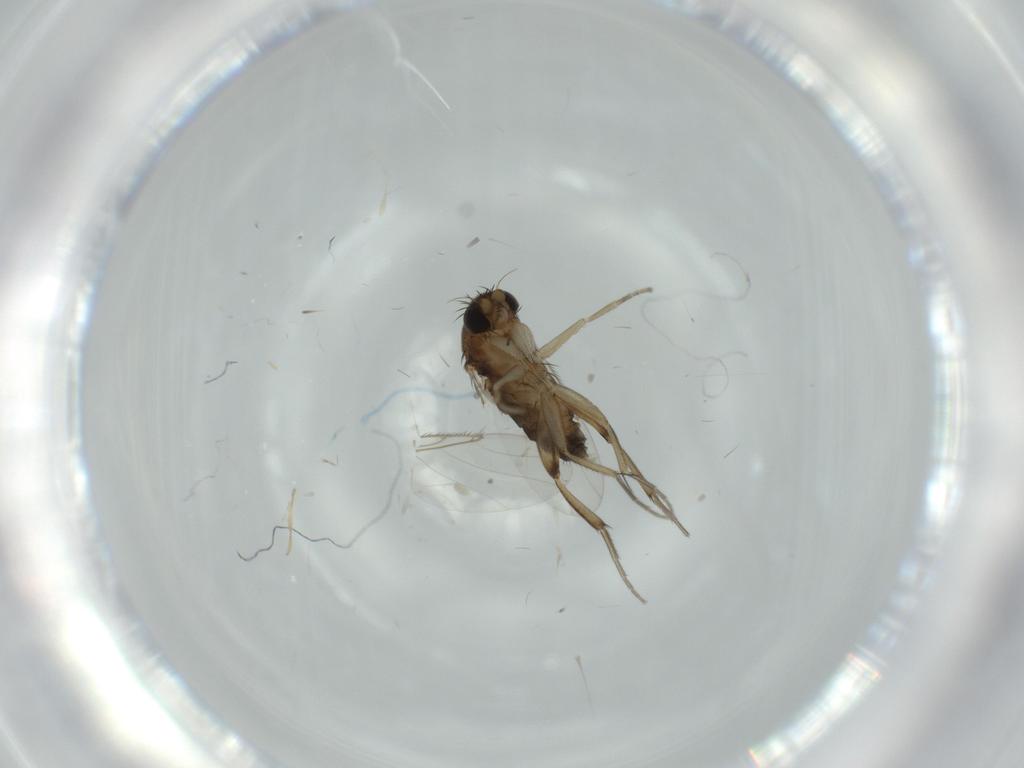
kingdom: Animalia
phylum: Arthropoda
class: Insecta
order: Diptera
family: Phoridae
